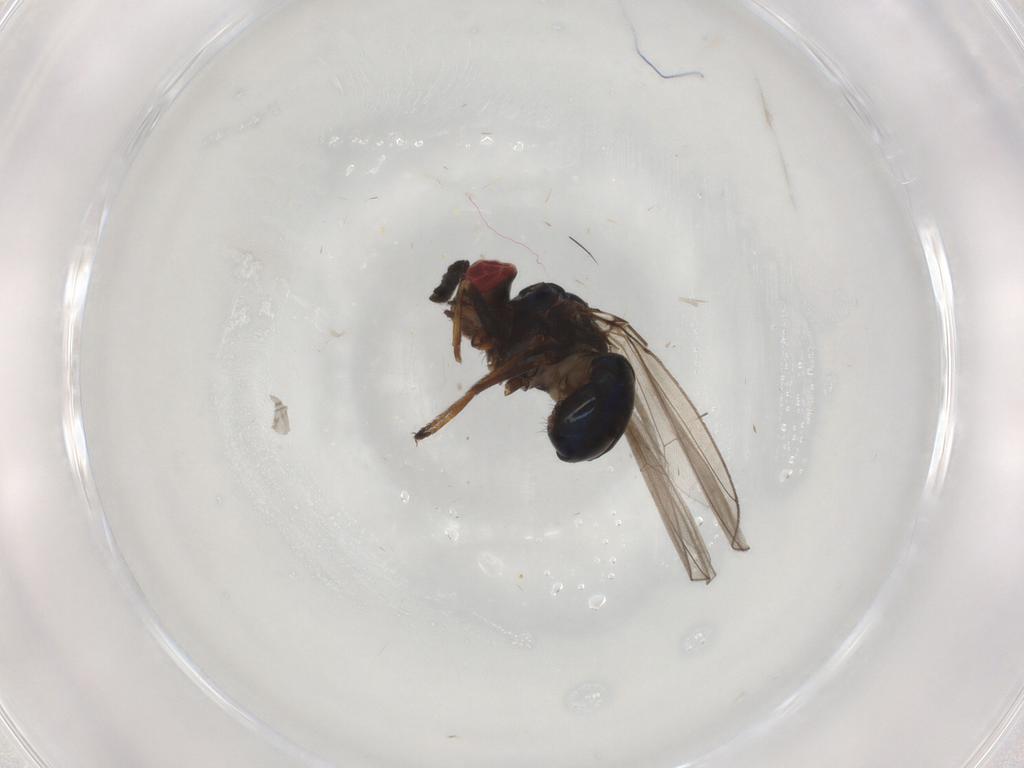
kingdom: Animalia
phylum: Arthropoda
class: Insecta
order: Diptera
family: Ephydridae
